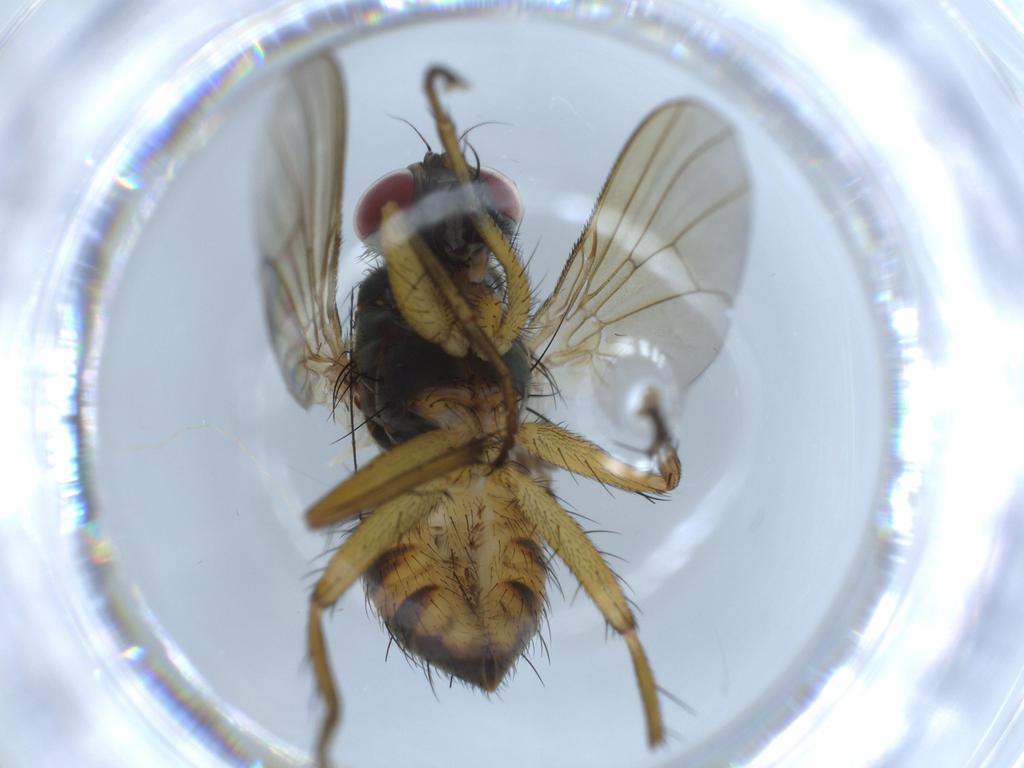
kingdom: Animalia
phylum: Arthropoda
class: Insecta
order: Diptera
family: Muscidae
